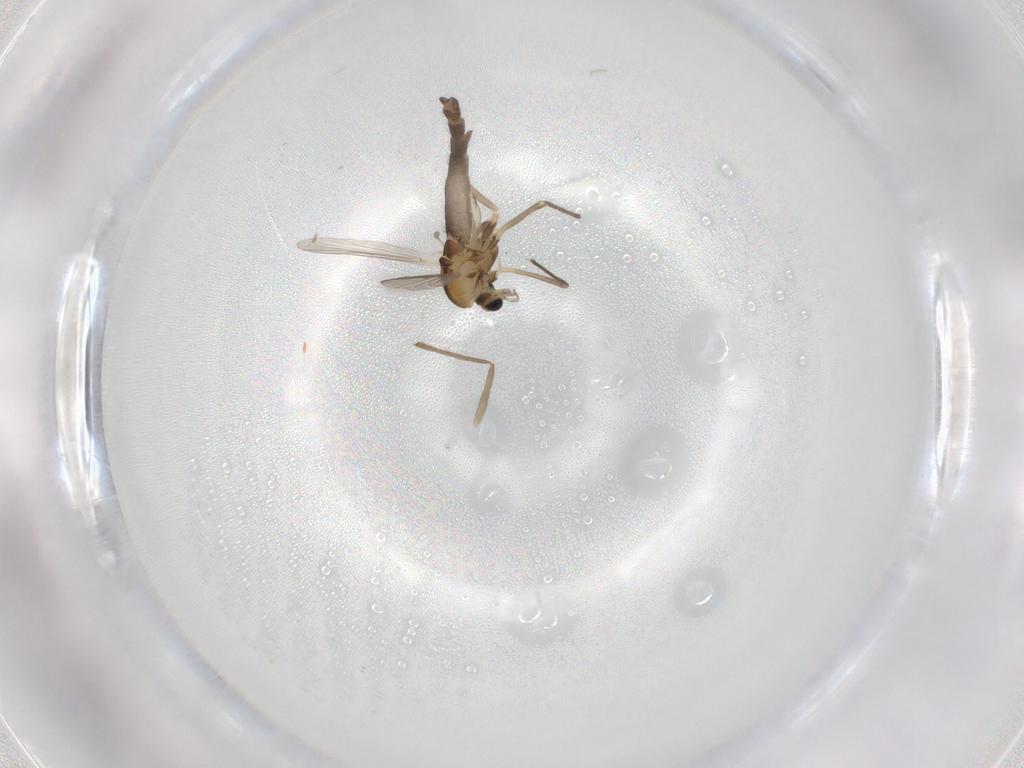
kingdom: Animalia
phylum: Arthropoda
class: Insecta
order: Diptera
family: Chironomidae
